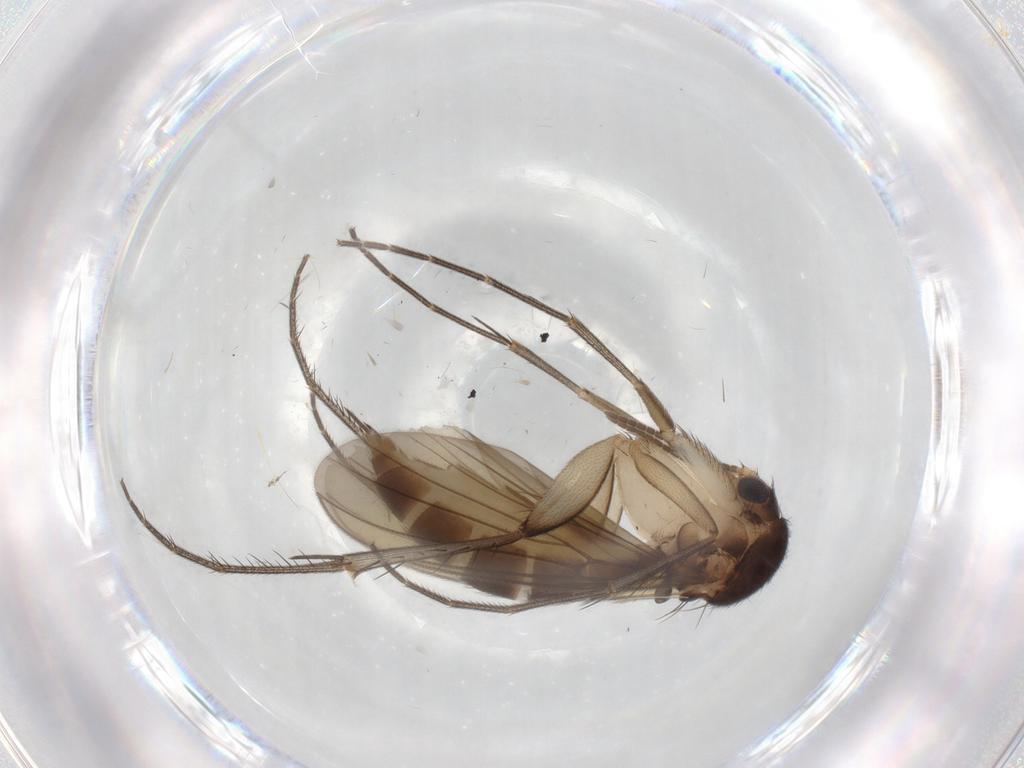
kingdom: Animalia
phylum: Arthropoda
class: Insecta
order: Diptera
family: Mycetophilidae
